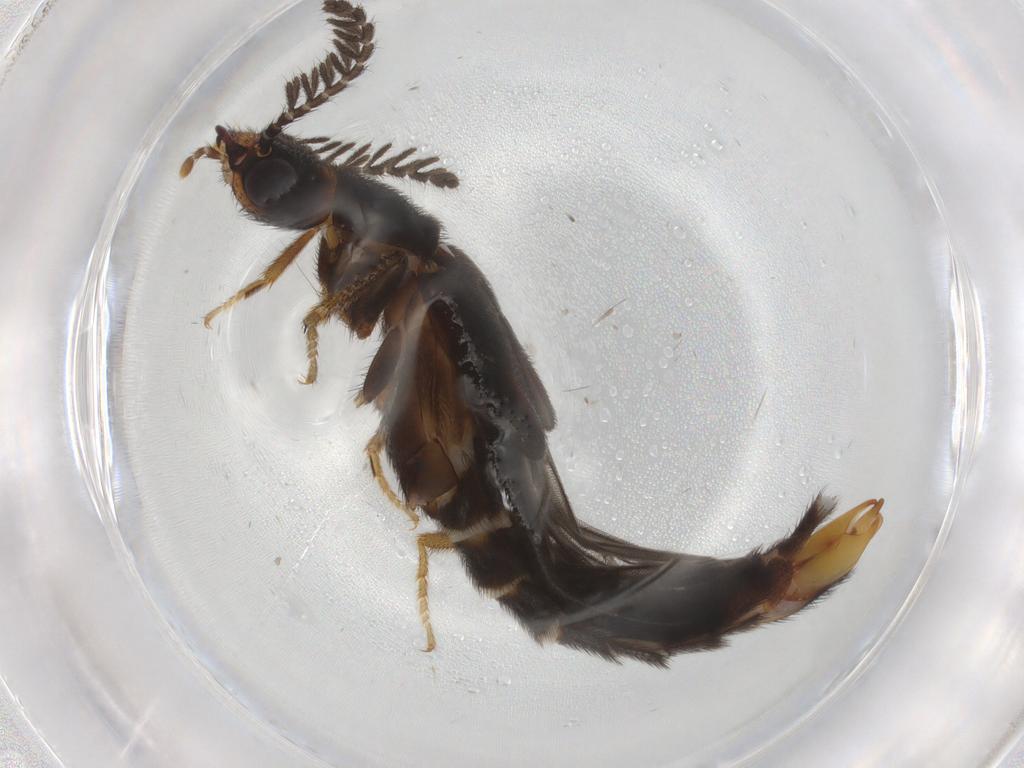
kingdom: Animalia
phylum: Arthropoda
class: Insecta
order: Coleoptera
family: Phengodidae
